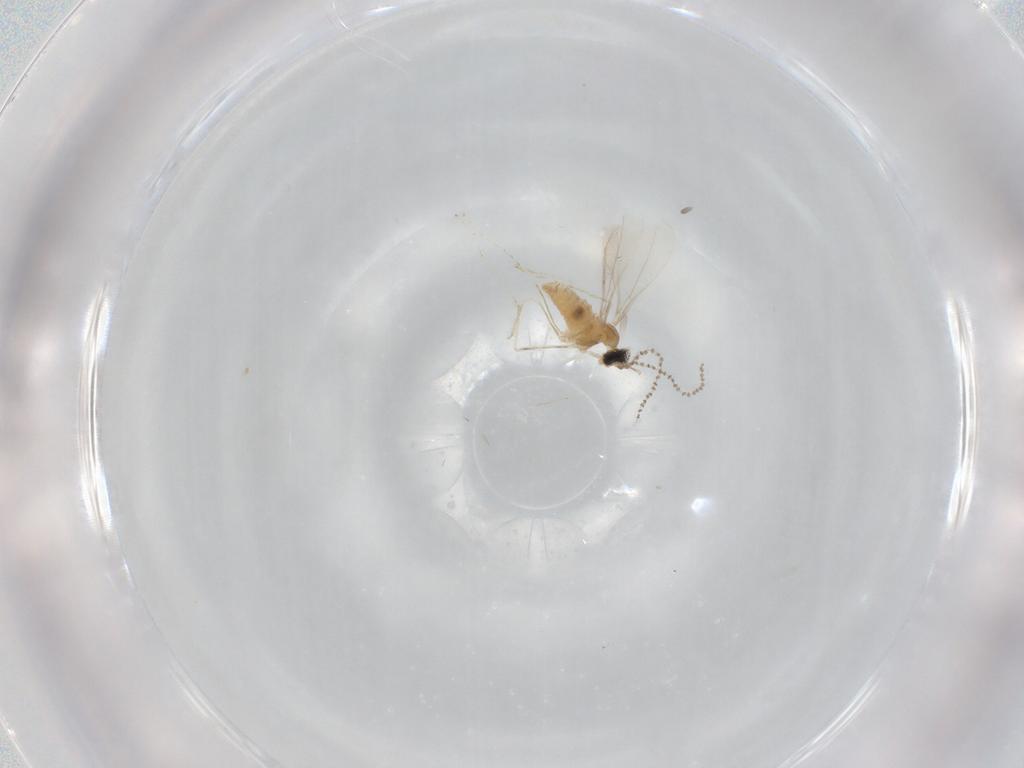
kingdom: Animalia
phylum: Arthropoda
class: Insecta
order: Diptera
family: Cecidomyiidae
